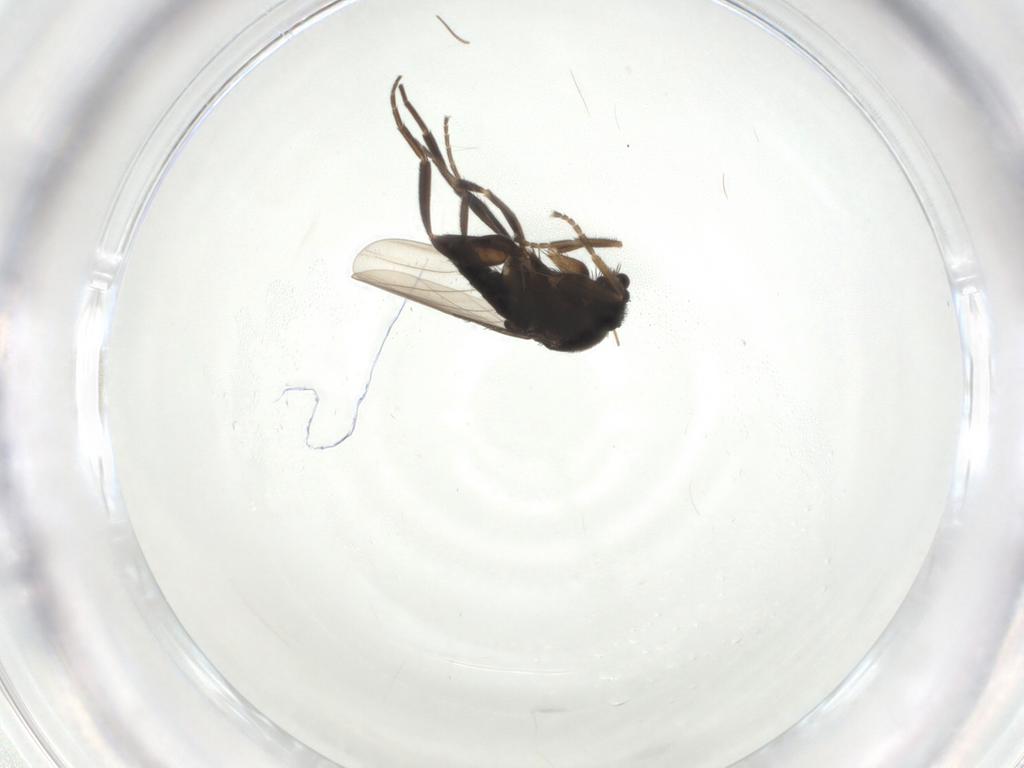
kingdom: Animalia
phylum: Arthropoda
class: Insecta
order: Diptera
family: Phoridae
